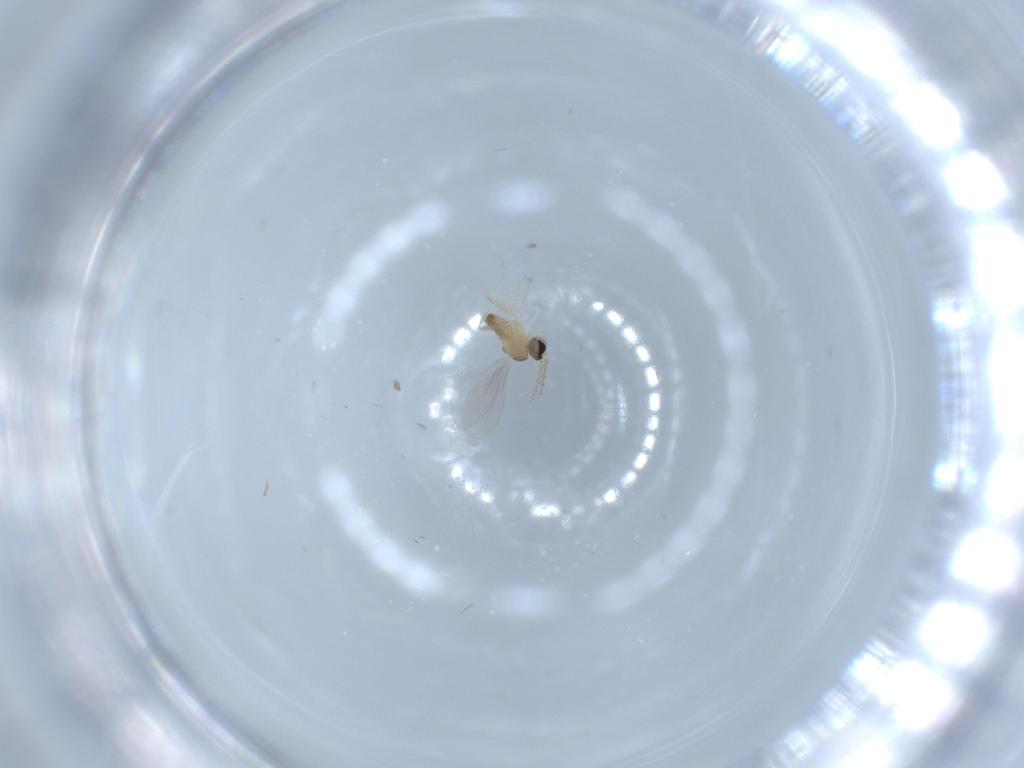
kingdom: Animalia
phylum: Arthropoda
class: Insecta
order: Diptera
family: Cecidomyiidae
